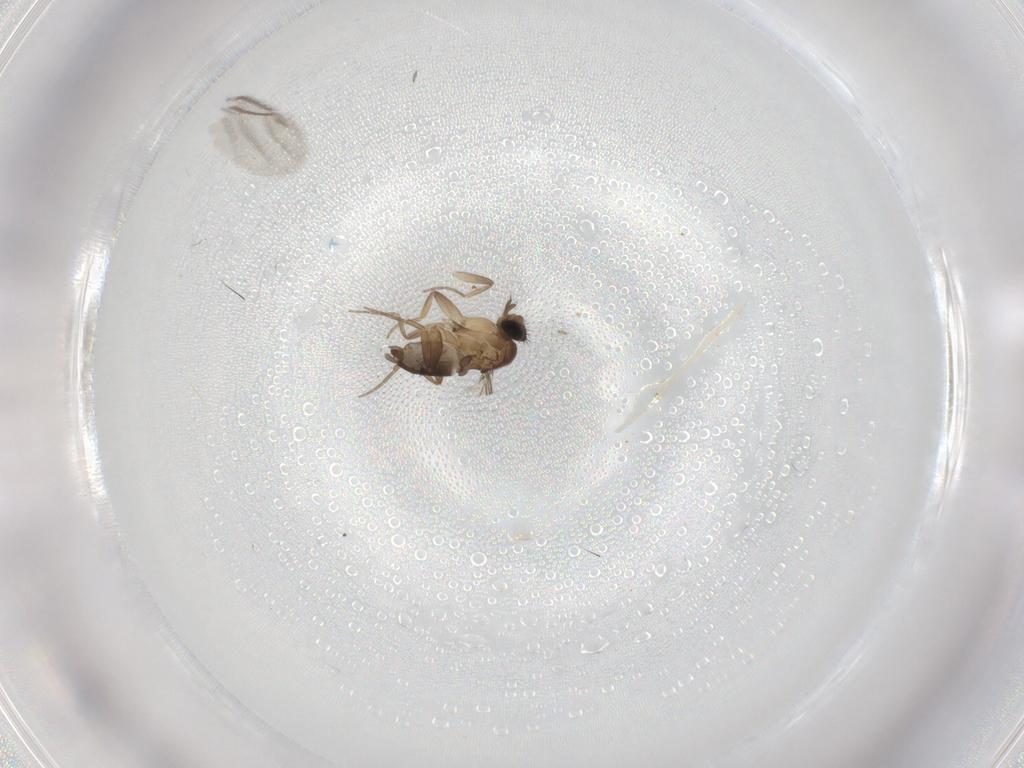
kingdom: Animalia
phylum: Arthropoda
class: Insecta
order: Diptera
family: Phoridae
